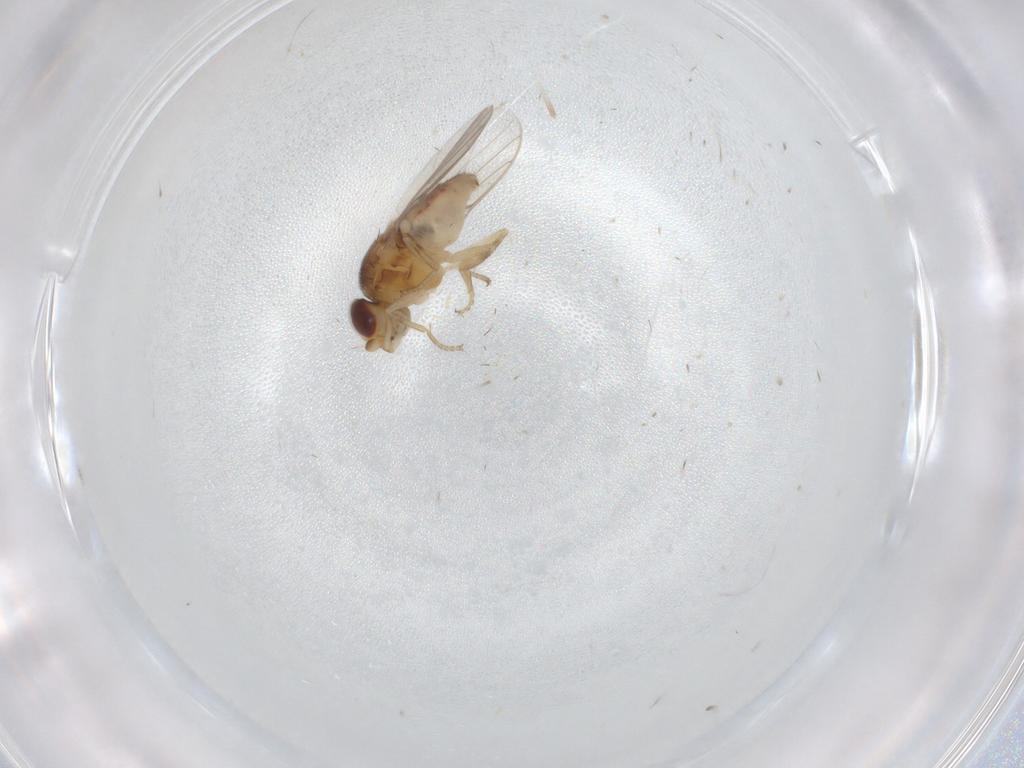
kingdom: Animalia
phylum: Arthropoda
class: Insecta
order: Diptera
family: Chloropidae
